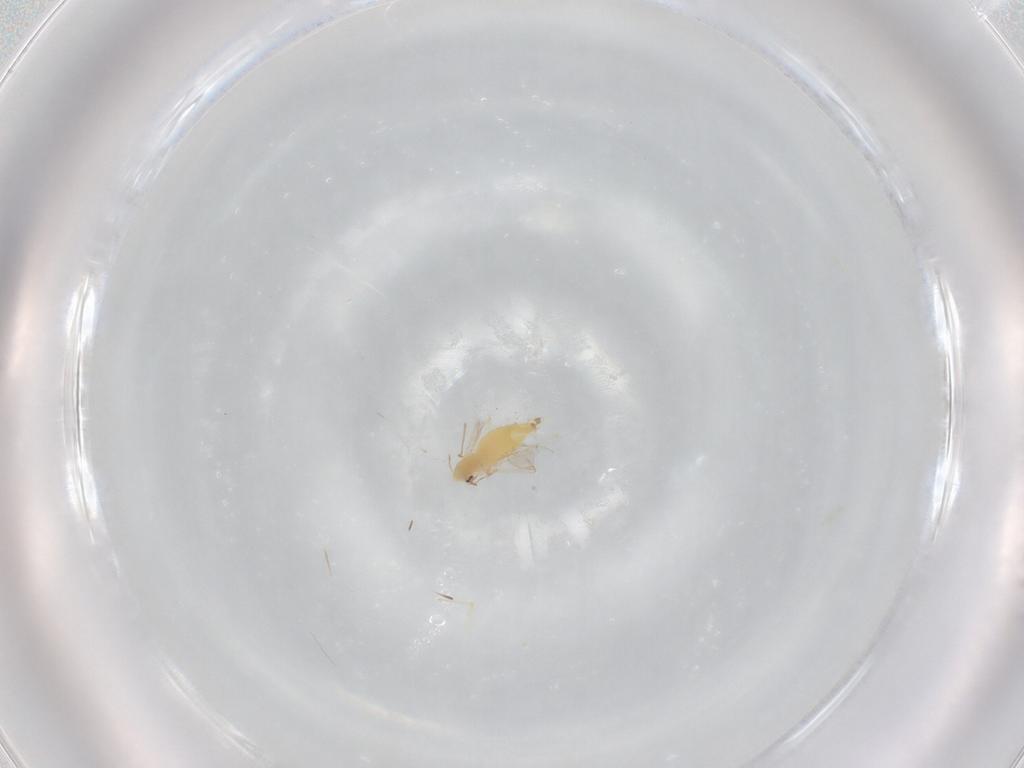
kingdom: Animalia
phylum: Arthropoda
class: Insecta
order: Diptera
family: Chironomidae
